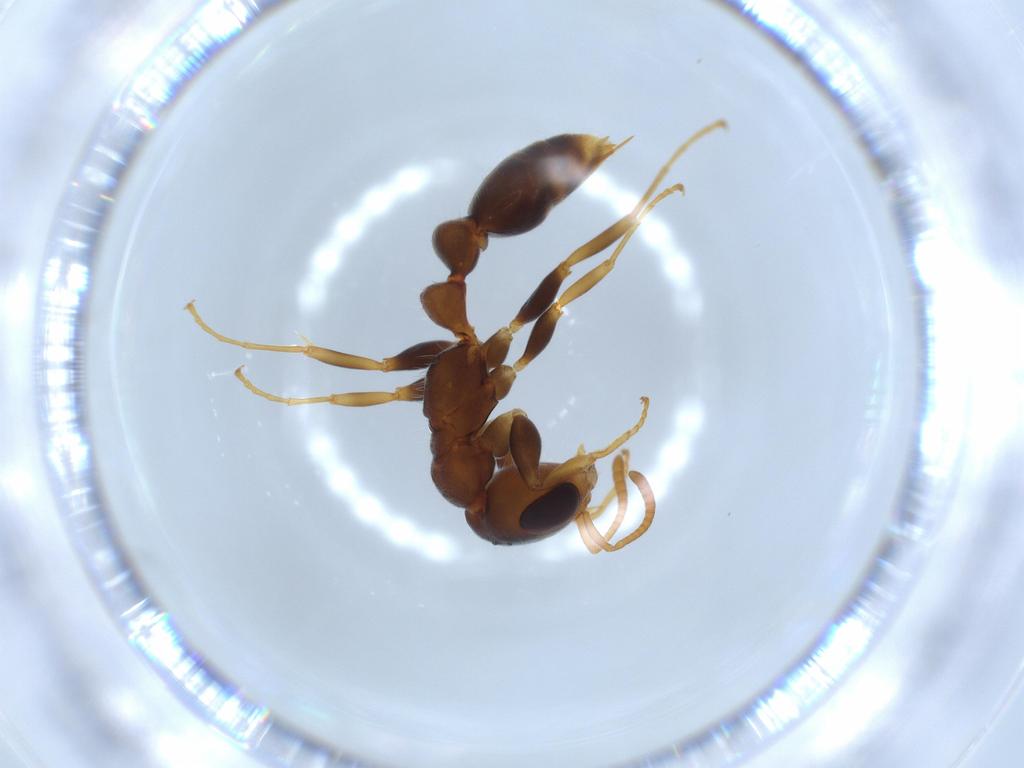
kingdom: Animalia
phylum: Arthropoda
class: Insecta
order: Hymenoptera
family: Formicidae
